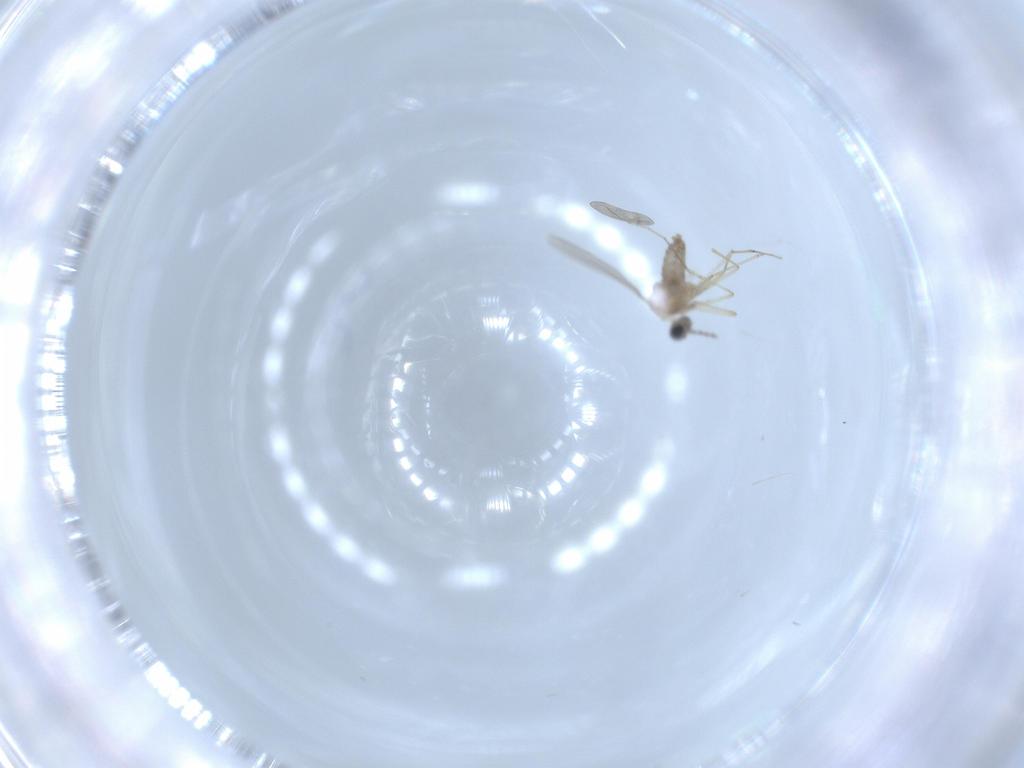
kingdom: Animalia
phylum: Arthropoda
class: Insecta
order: Diptera
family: Cecidomyiidae
